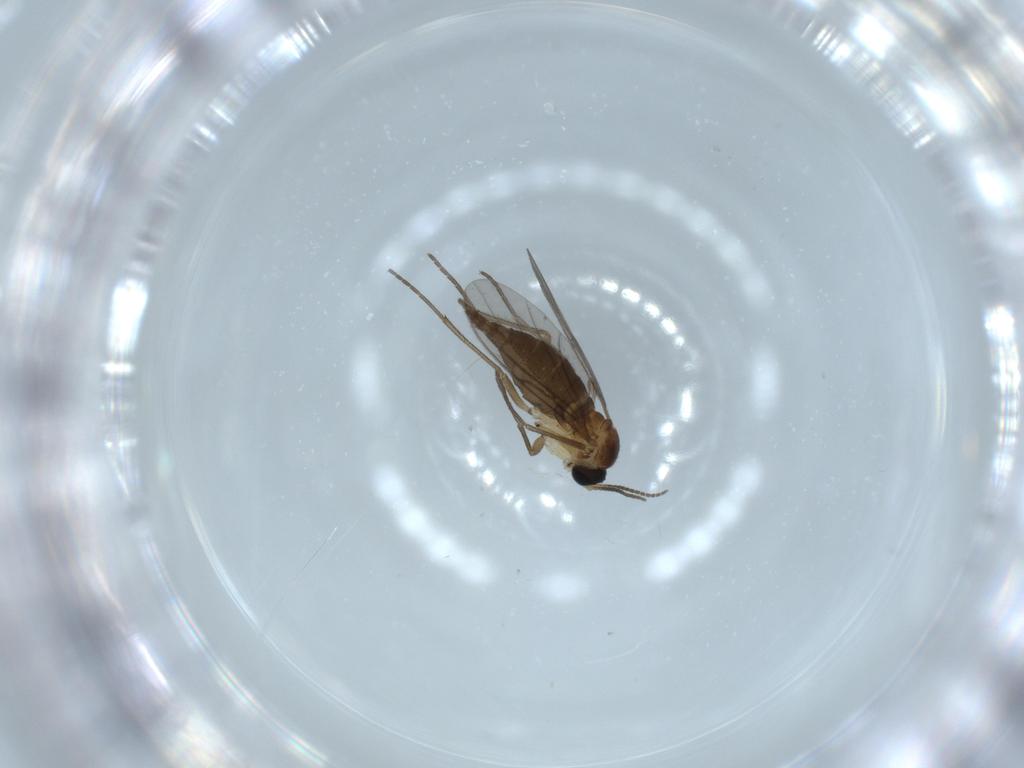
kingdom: Animalia
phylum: Arthropoda
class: Insecta
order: Diptera
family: Sciaridae
